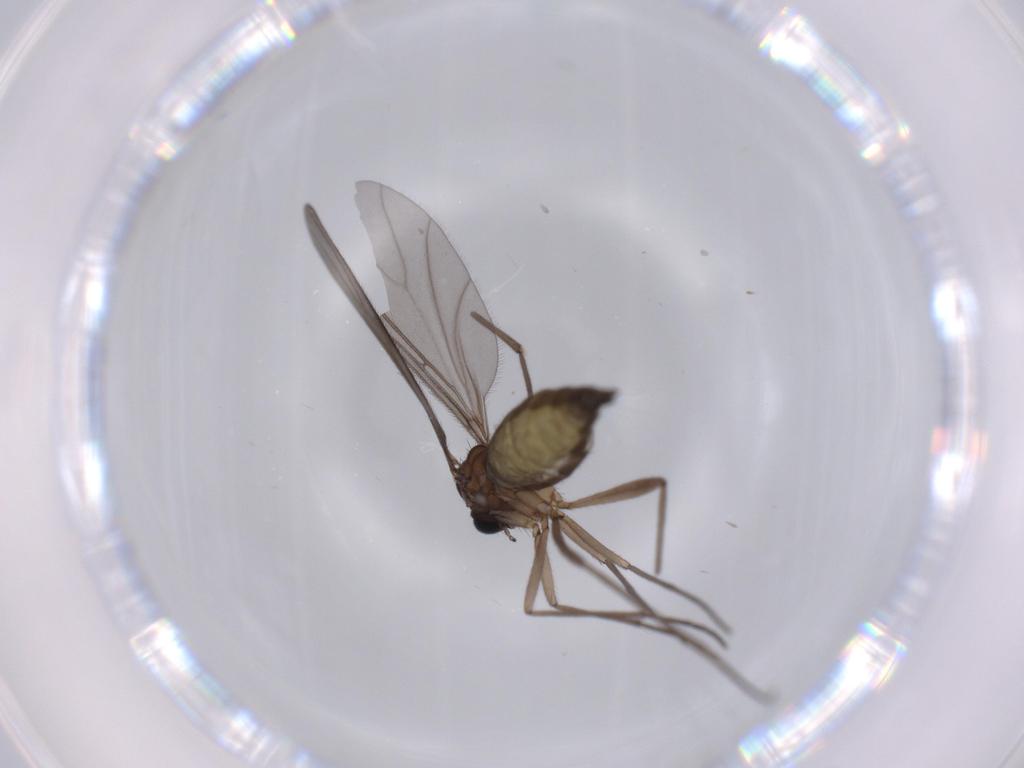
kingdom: Animalia
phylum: Arthropoda
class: Insecta
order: Diptera
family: Sciaridae
